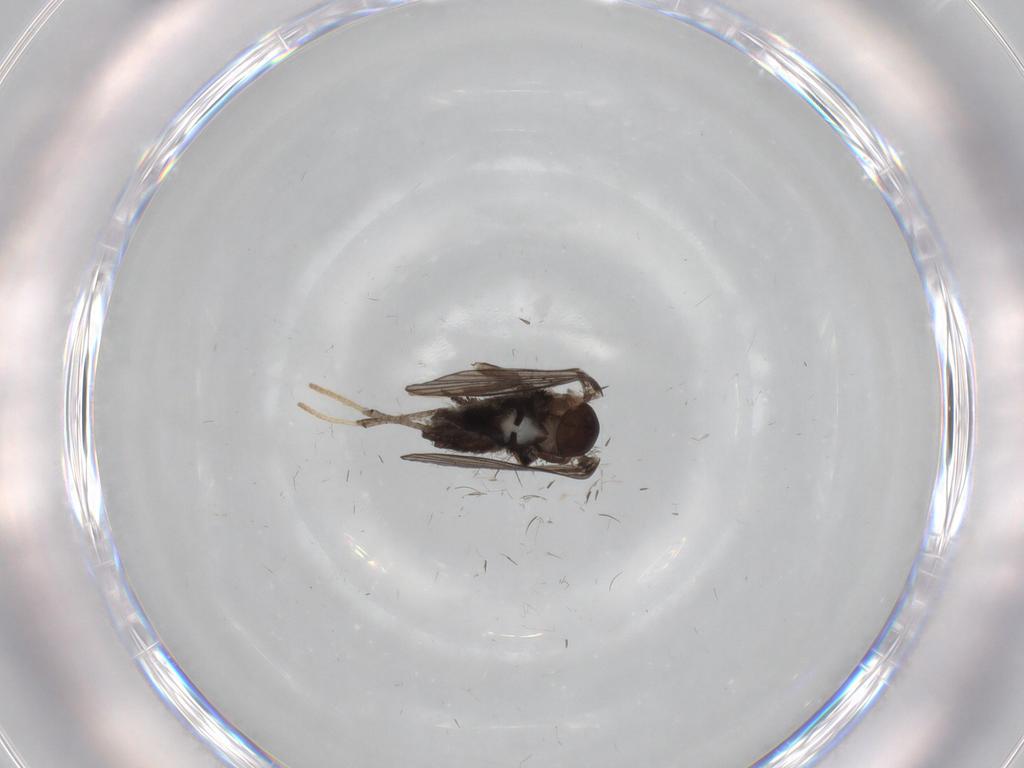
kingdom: Animalia
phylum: Arthropoda
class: Insecta
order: Diptera
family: Psychodidae
